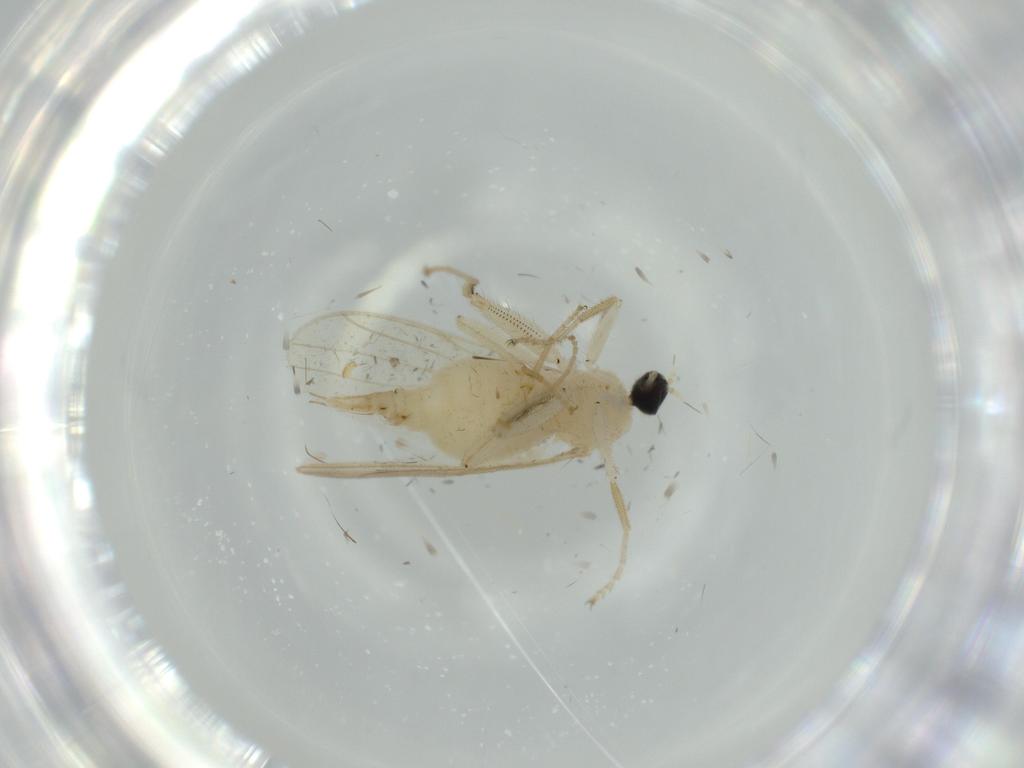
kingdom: Animalia
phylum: Arthropoda
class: Insecta
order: Diptera
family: Hybotidae
